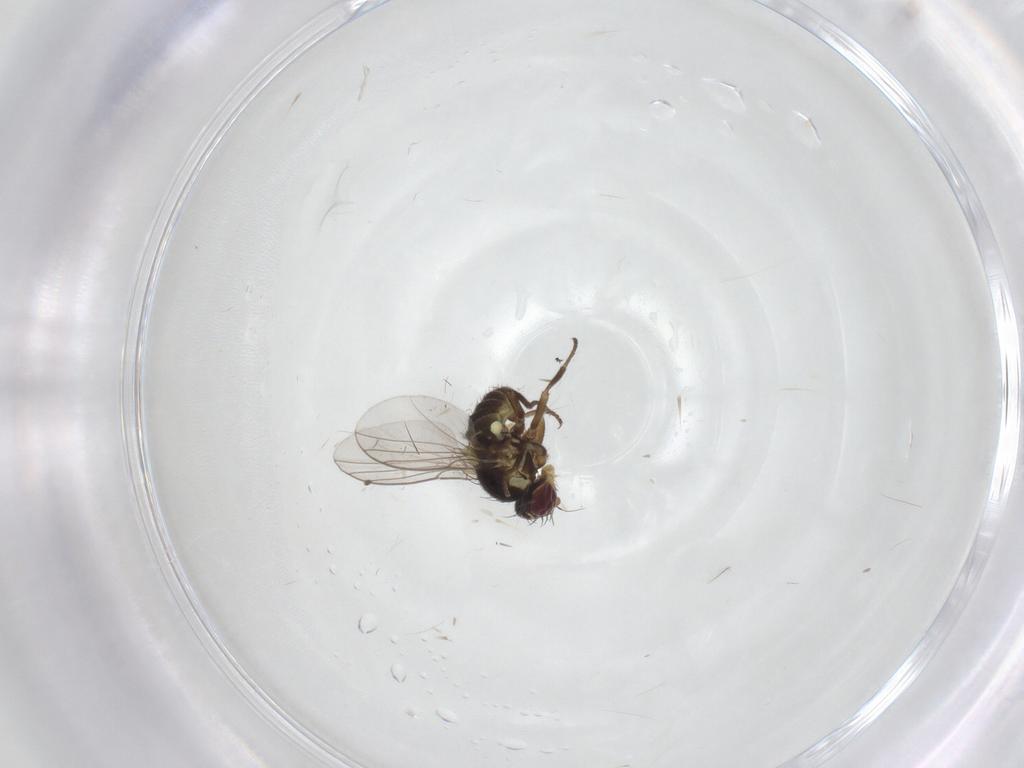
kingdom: Animalia
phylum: Arthropoda
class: Insecta
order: Diptera
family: Agromyzidae
